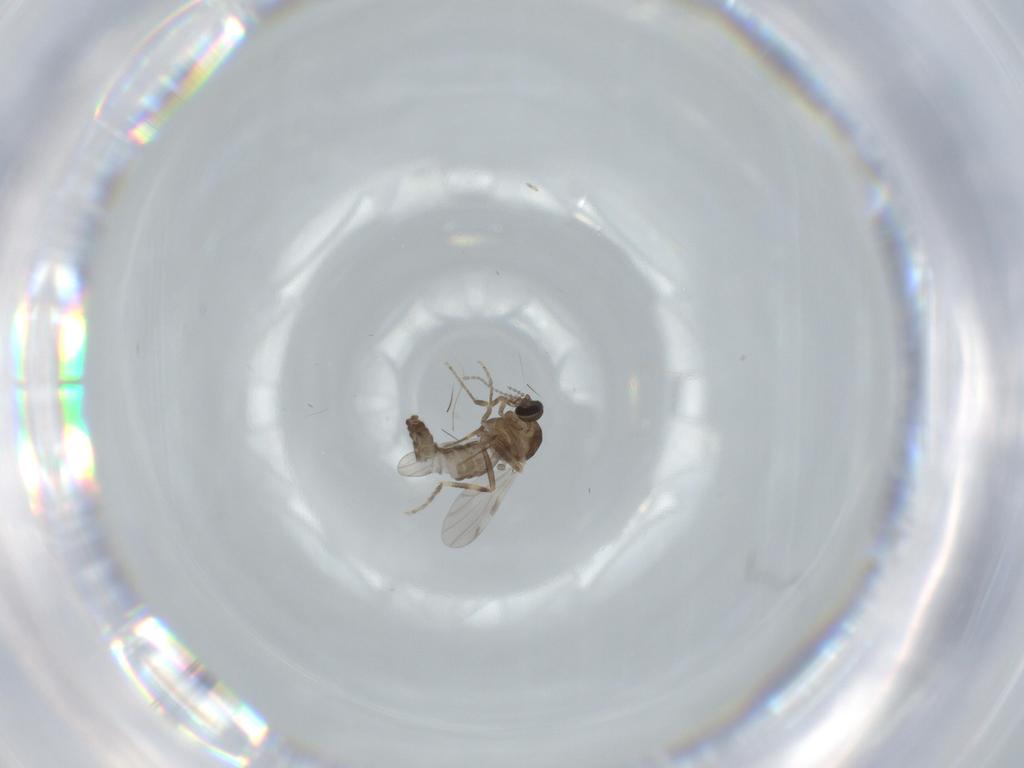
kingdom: Animalia
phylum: Arthropoda
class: Insecta
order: Diptera
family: Ceratopogonidae
